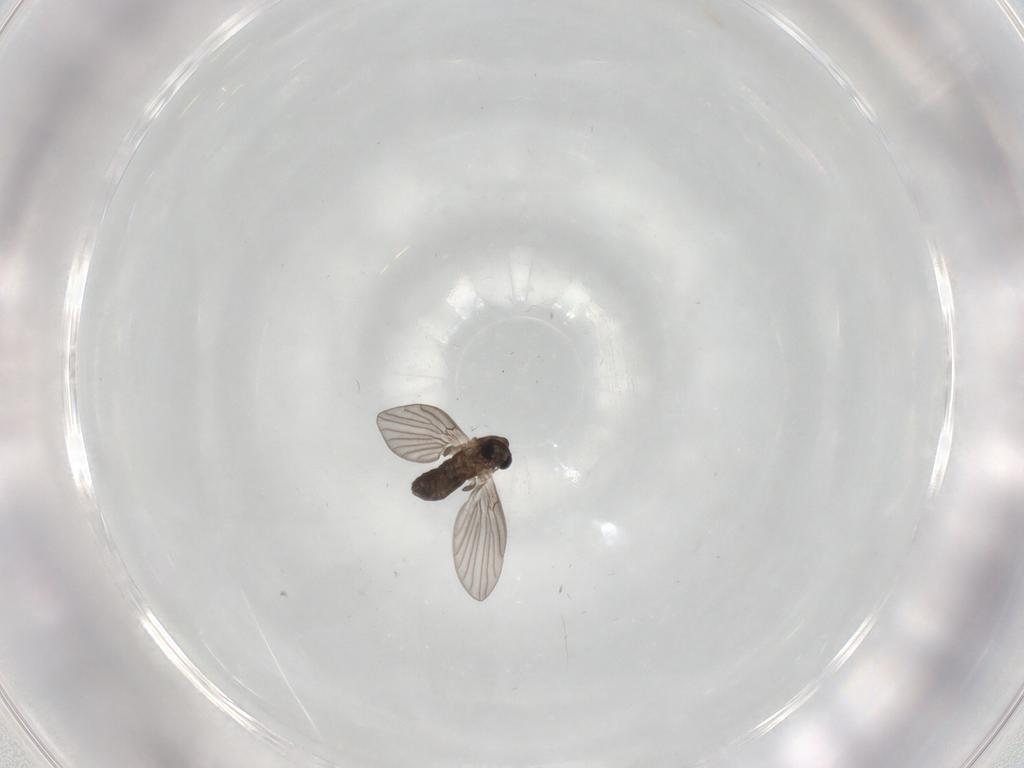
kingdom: Animalia
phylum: Arthropoda
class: Insecta
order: Diptera
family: Psychodidae
